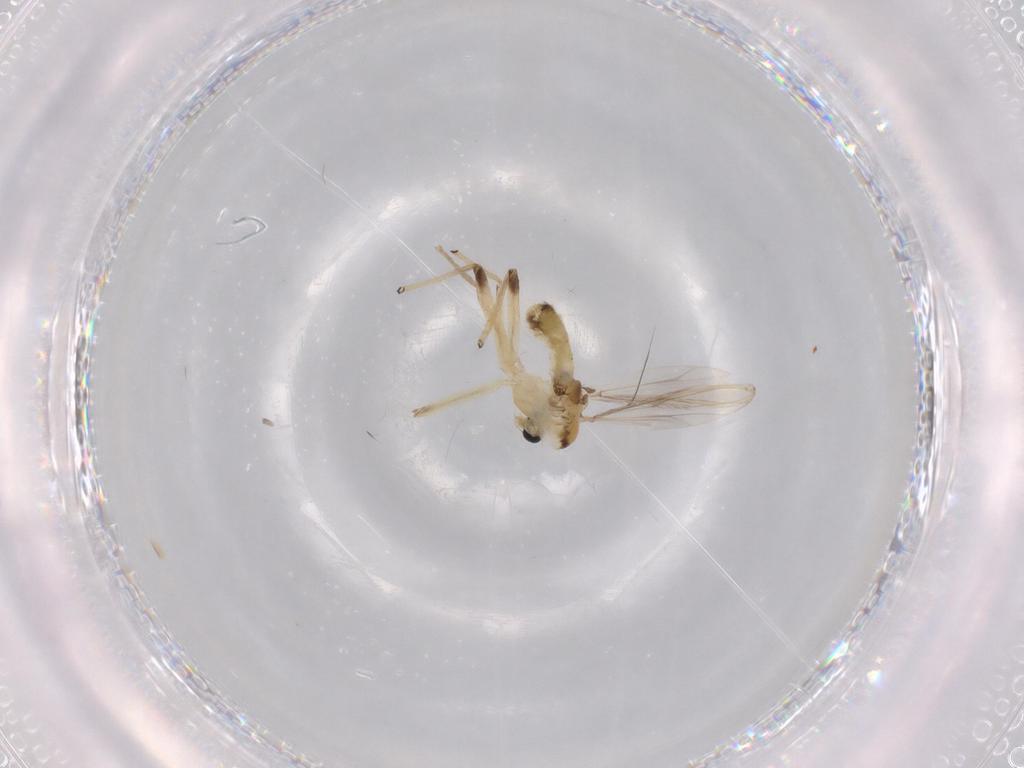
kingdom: Animalia
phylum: Arthropoda
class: Insecta
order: Diptera
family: Chironomidae
